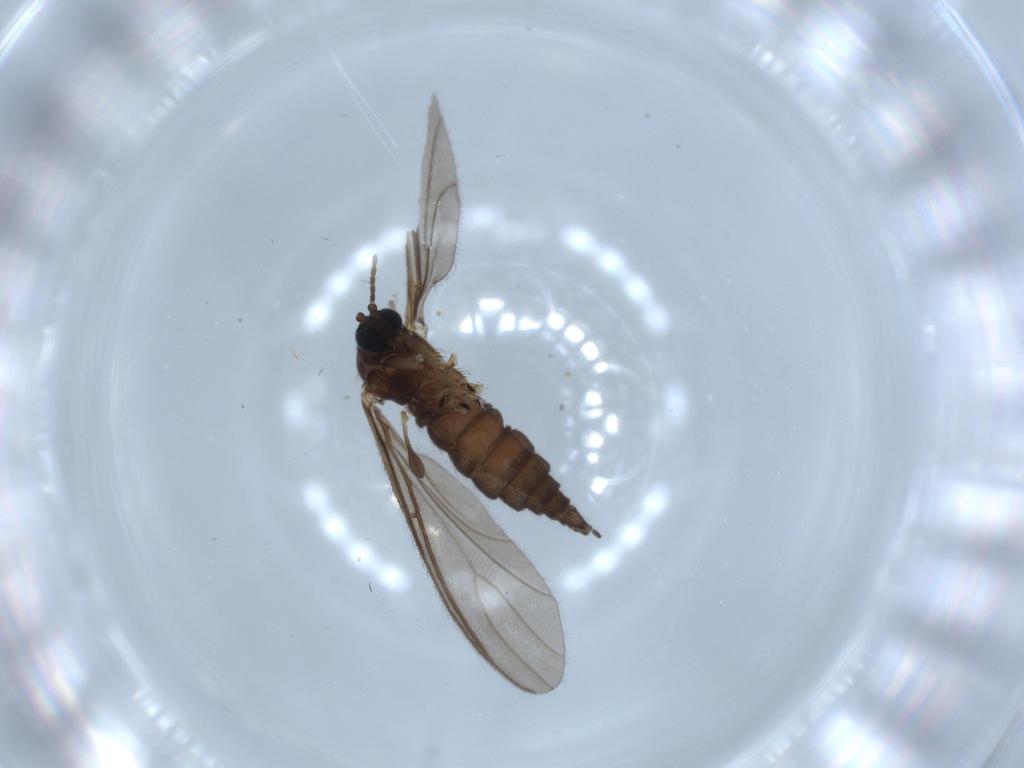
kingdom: Animalia
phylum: Arthropoda
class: Insecta
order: Diptera
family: Sciaridae
